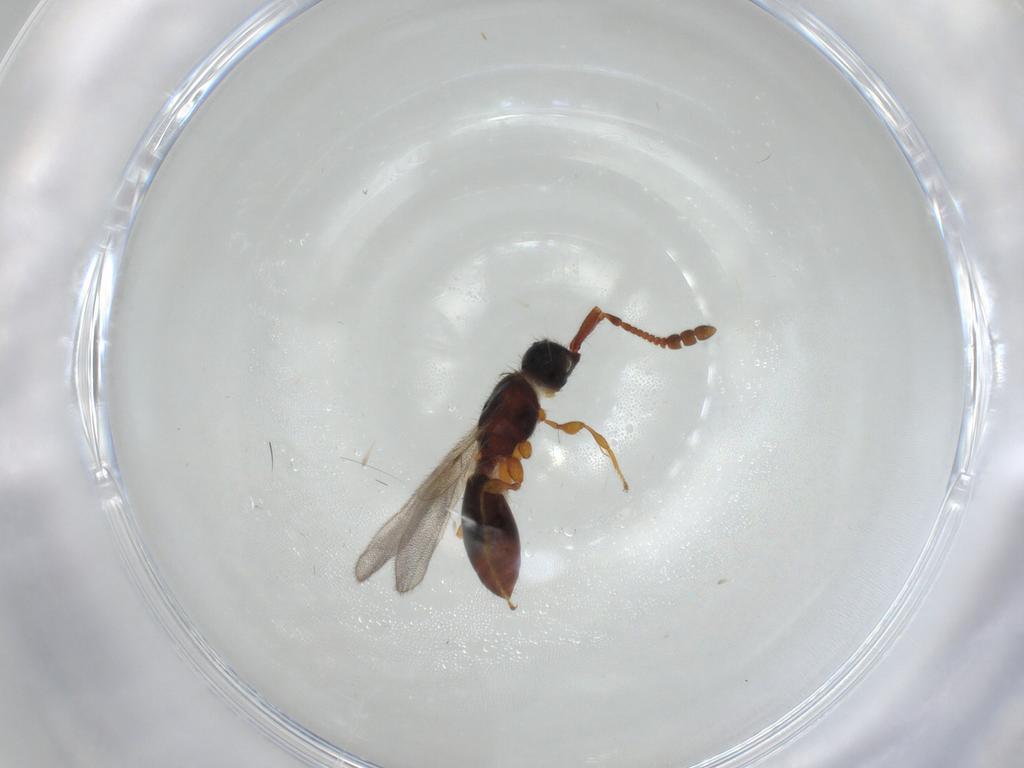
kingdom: Animalia
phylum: Arthropoda
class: Insecta
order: Hymenoptera
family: Diapriidae
